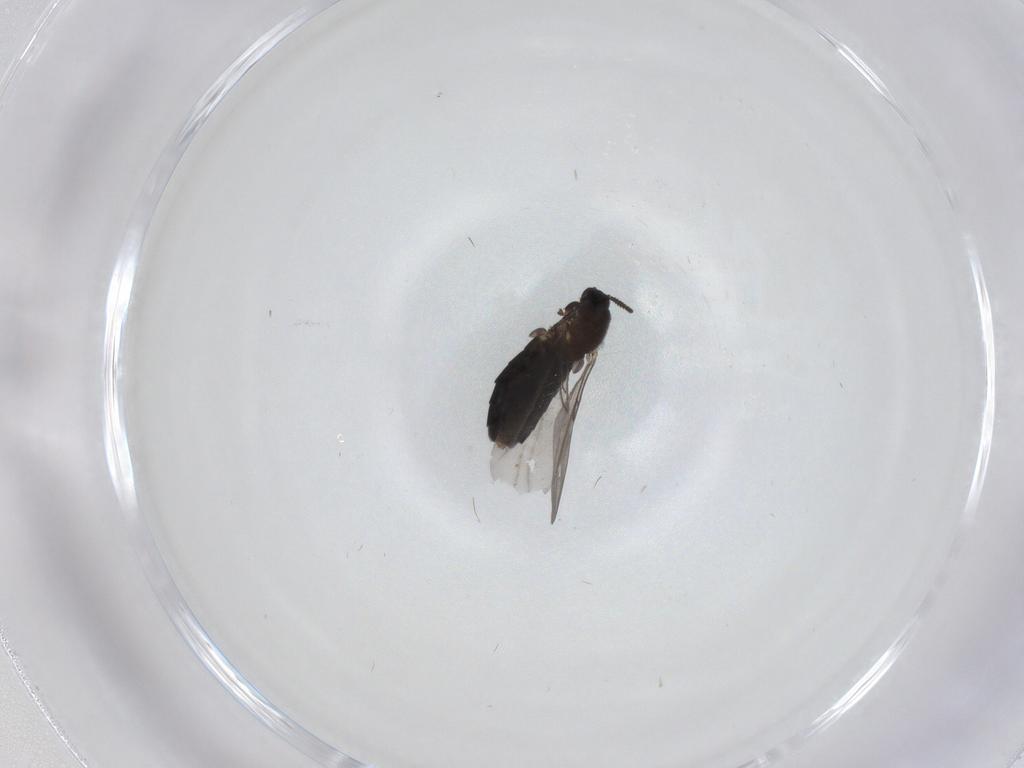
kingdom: Animalia
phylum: Arthropoda
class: Insecta
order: Diptera
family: Scatopsidae
